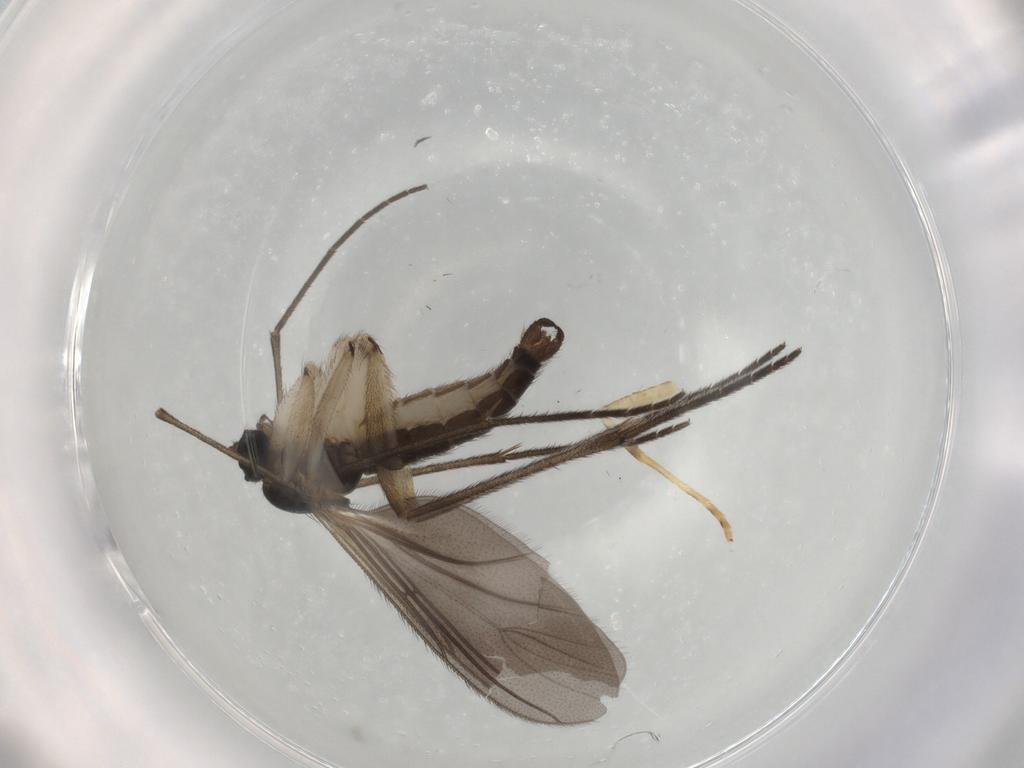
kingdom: Animalia
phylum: Arthropoda
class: Insecta
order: Diptera
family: Sciaridae
